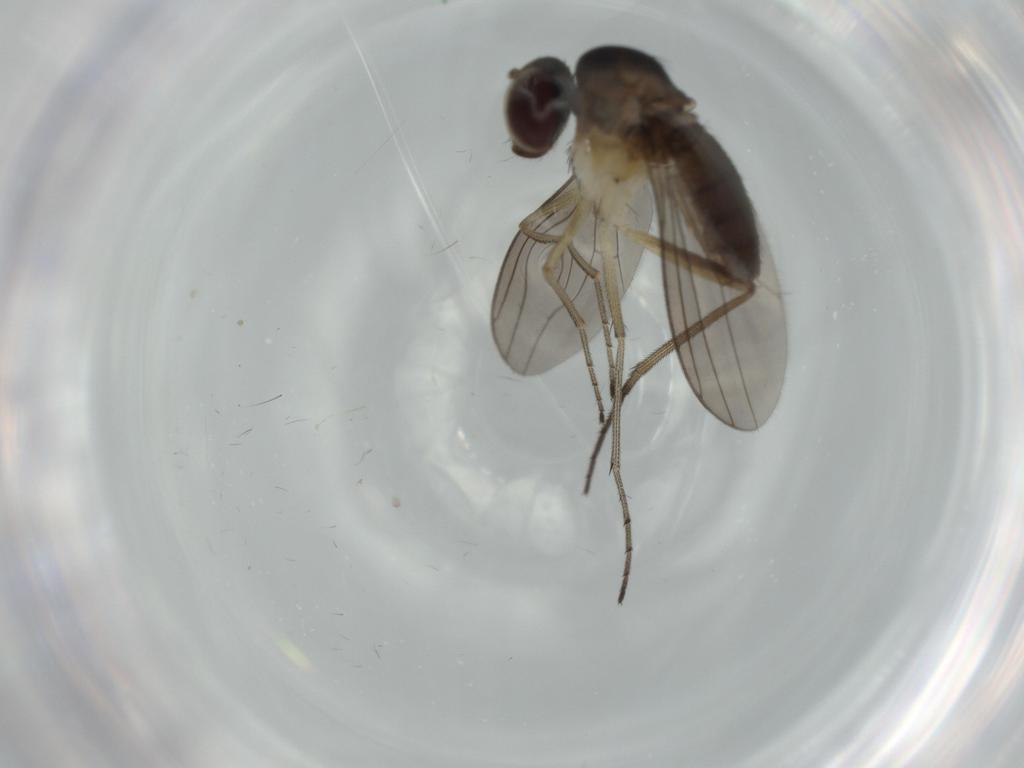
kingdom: Animalia
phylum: Arthropoda
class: Insecta
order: Diptera
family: Dolichopodidae
